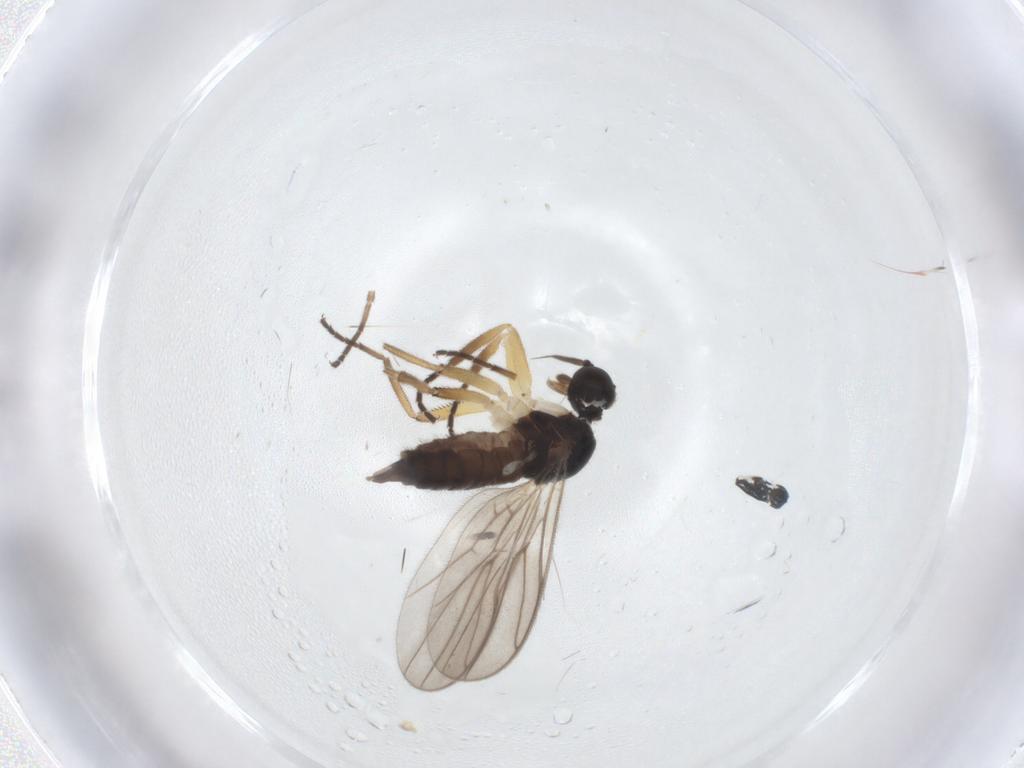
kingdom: Animalia
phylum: Arthropoda
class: Insecta
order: Diptera
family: Hybotidae
